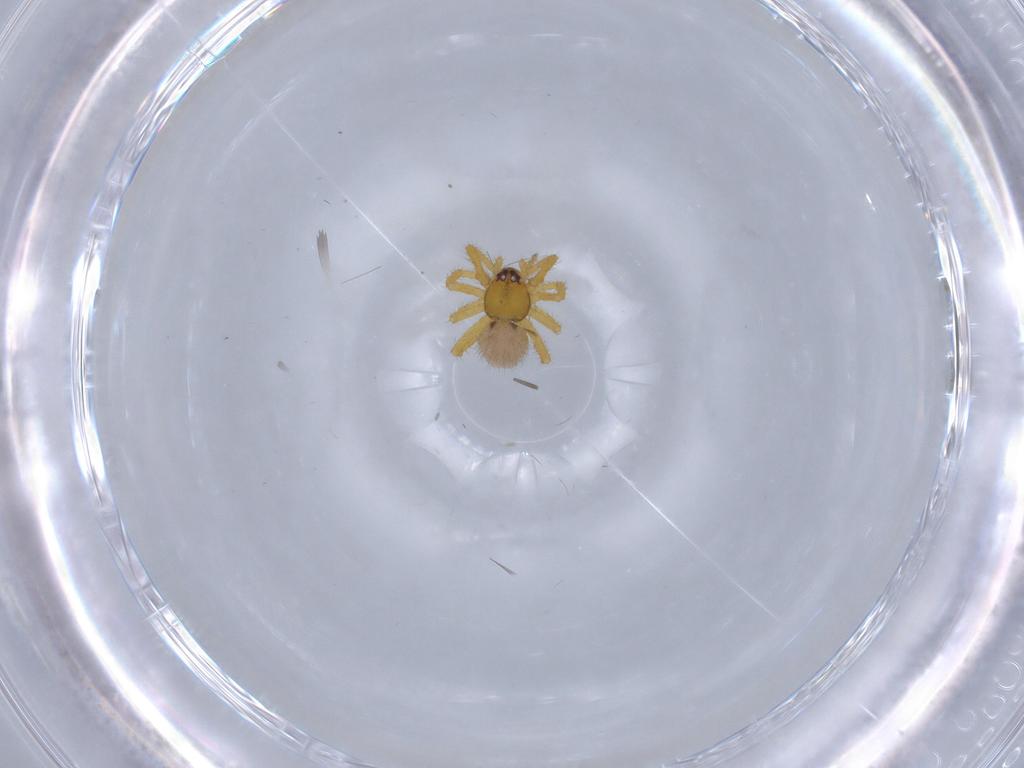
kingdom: Animalia
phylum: Arthropoda
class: Arachnida
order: Araneae
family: Theridiidae
